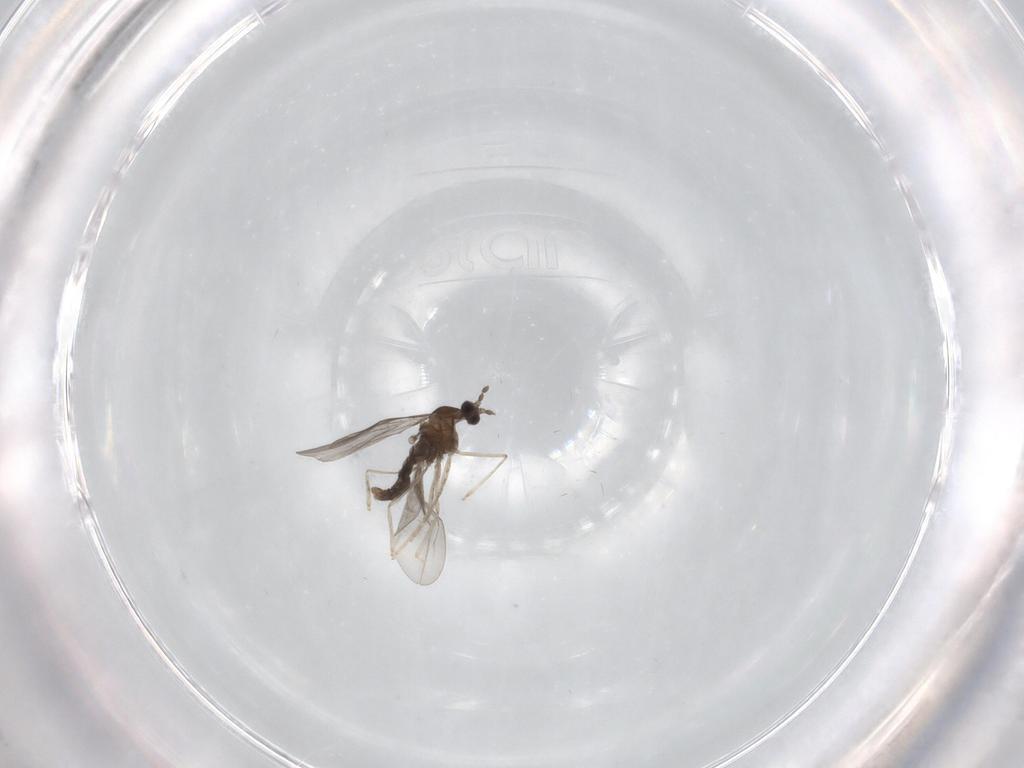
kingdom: Animalia
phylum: Arthropoda
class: Insecta
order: Diptera
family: Cecidomyiidae
